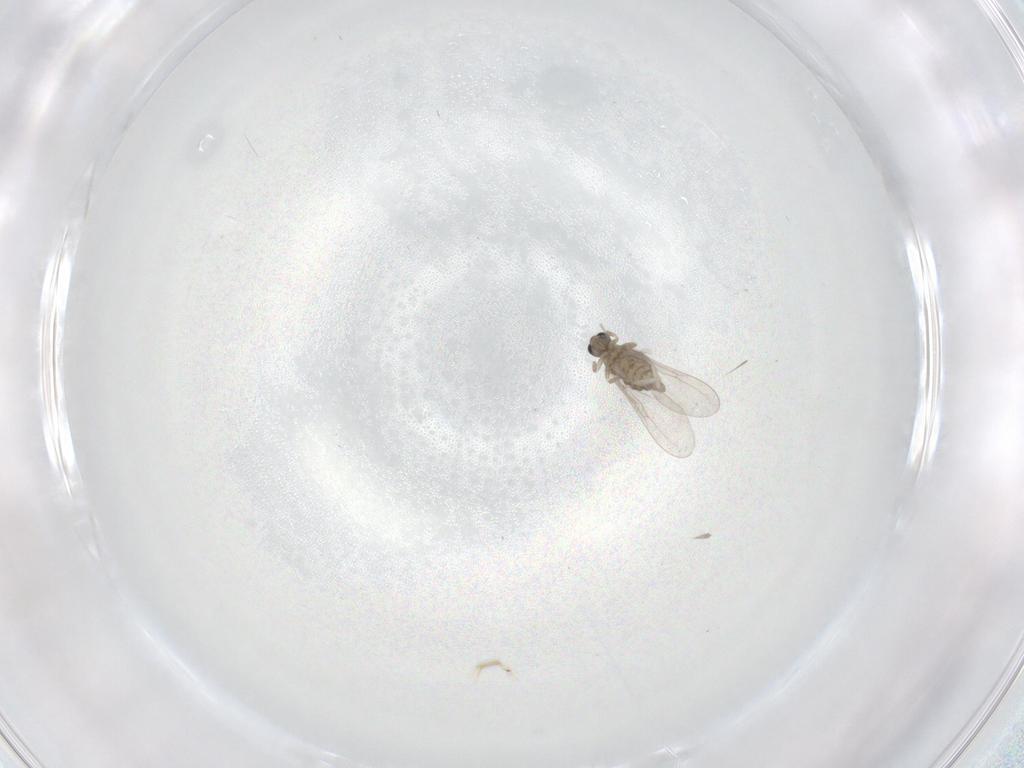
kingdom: Animalia
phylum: Arthropoda
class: Insecta
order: Diptera
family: Cecidomyiidae
